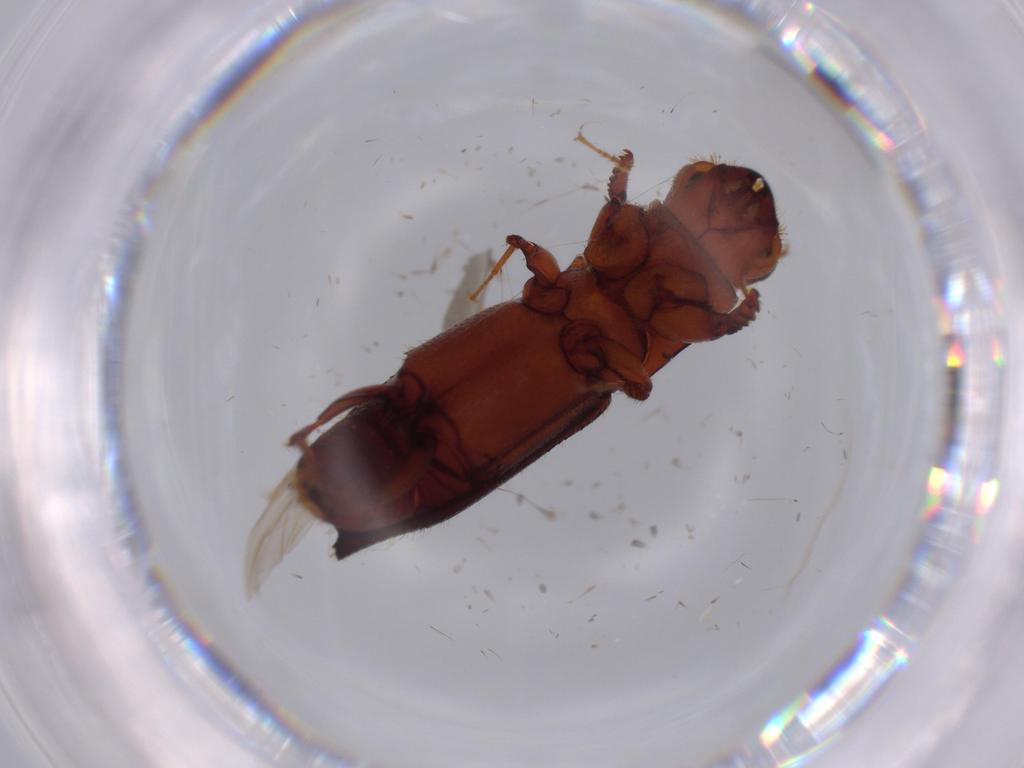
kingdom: Animalia
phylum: Arthropoda
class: Insecta
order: Coleoptera
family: Curculionidae
